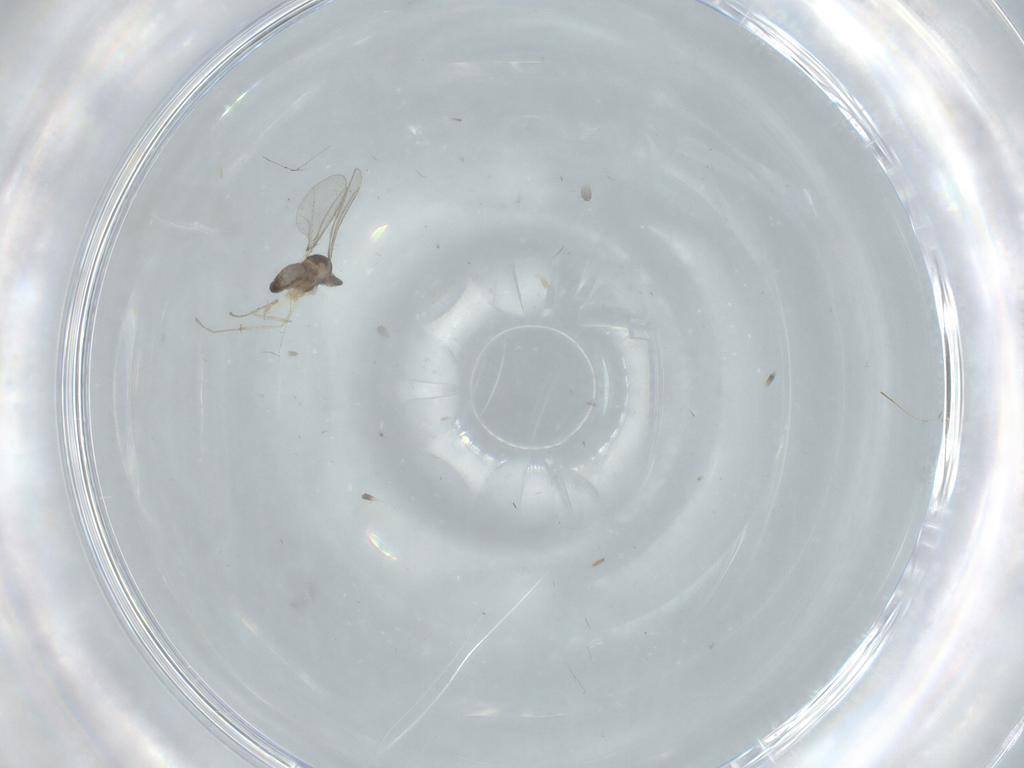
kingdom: Animalia
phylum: Arthropoda
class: Insecta
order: Diptera
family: Cecidomyiidae
